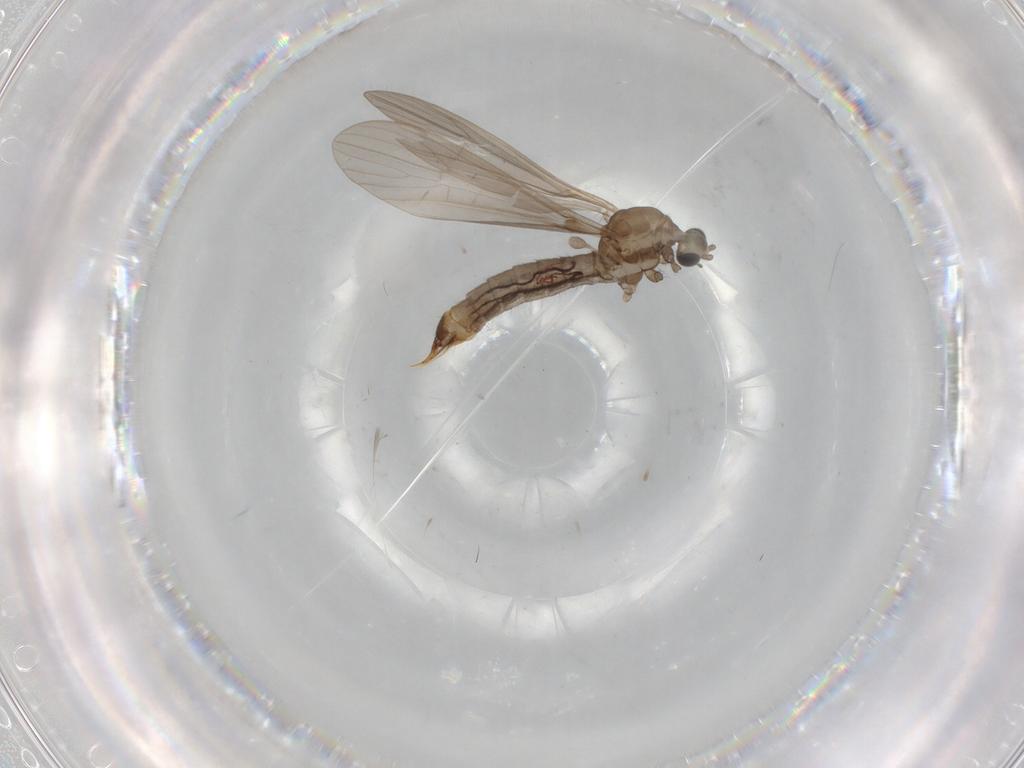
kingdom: Animalia
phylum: Arthropoda
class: Insecta
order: Diptera
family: Limoniidae
